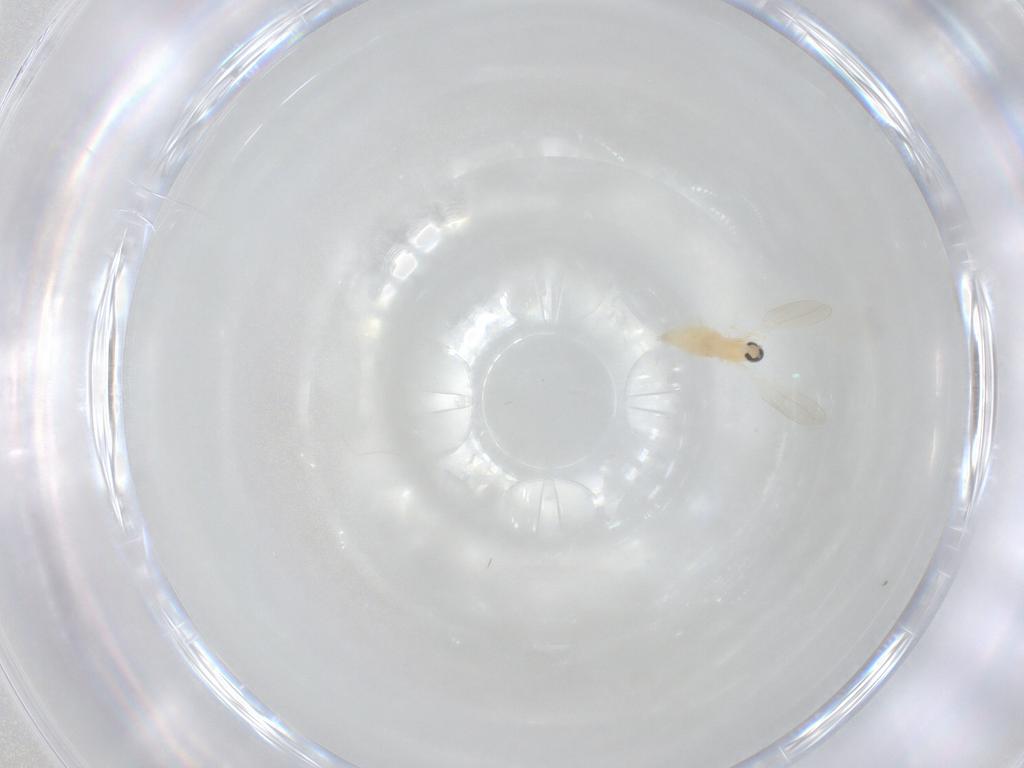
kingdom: Animalia
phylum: Arthropoda
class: Insecta
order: Diptera
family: Cecidomyiidae
